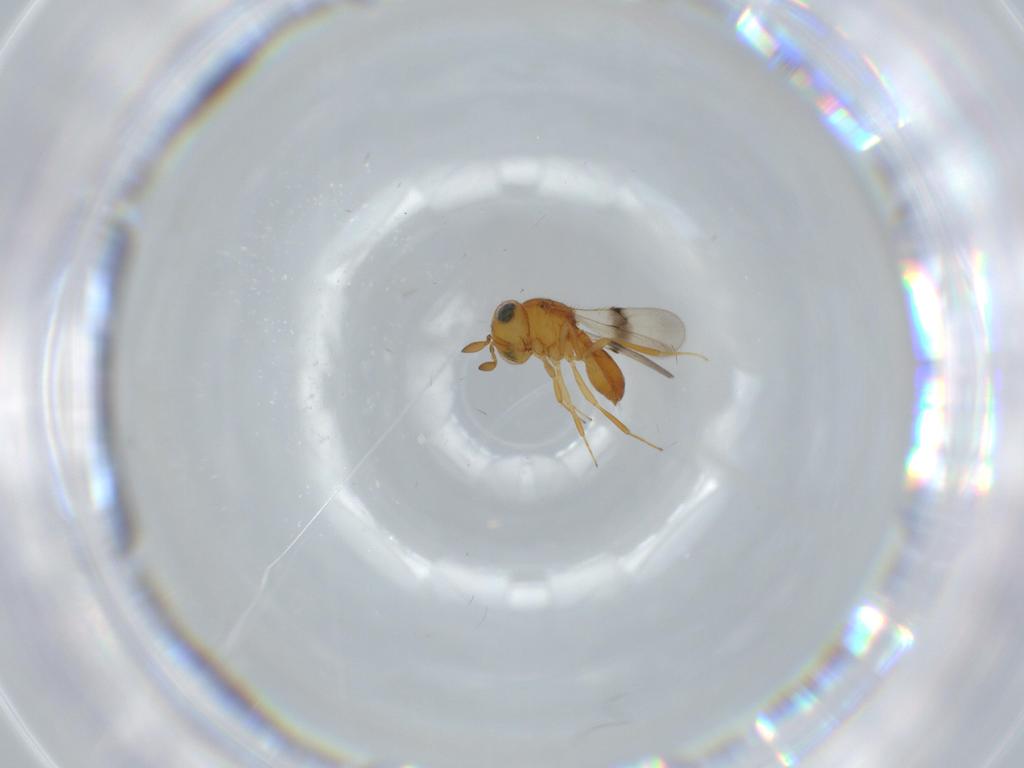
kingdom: Animalia
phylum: Arthropoda
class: Insecta
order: Hymenoptera
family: Scelionidae
